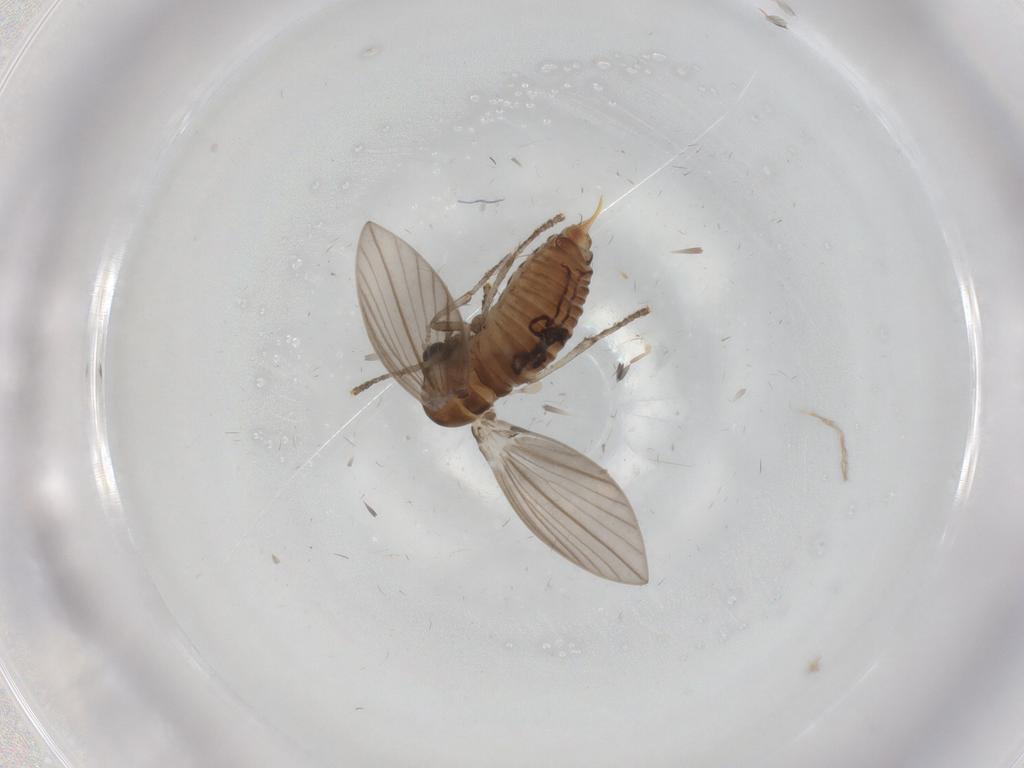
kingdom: Animalia
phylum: Arthropoda
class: Insecta
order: Diptera
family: Psychodidae
